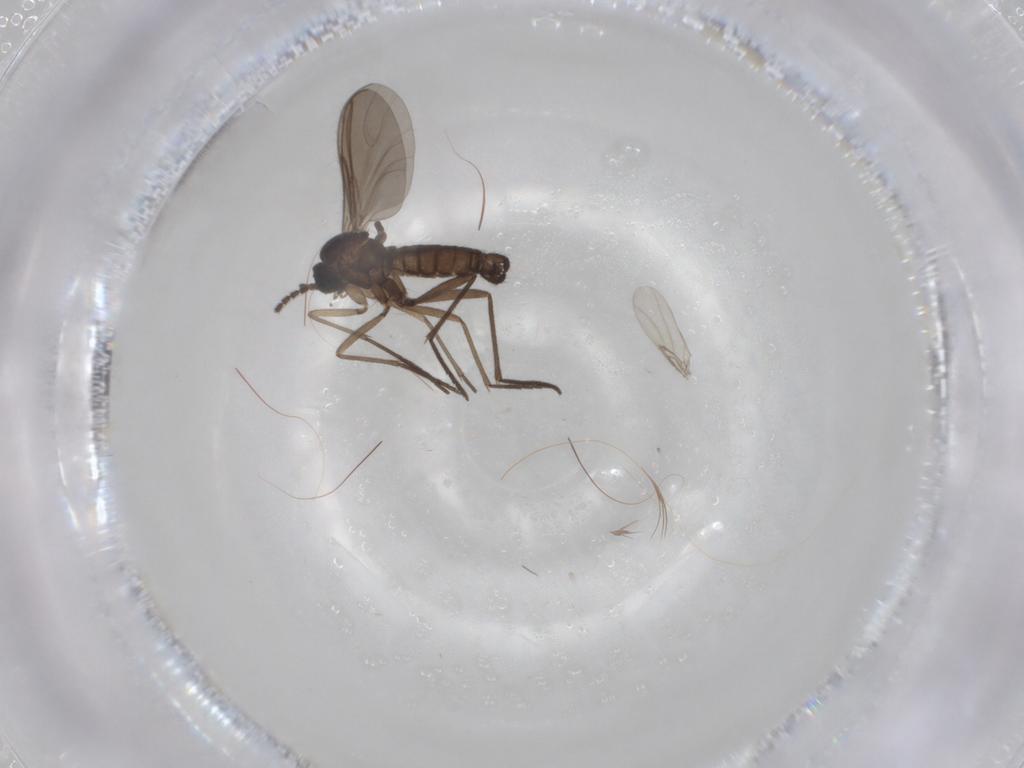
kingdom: Animalia
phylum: Arthropoda
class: Insecta
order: Diptera
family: Sciaridae
